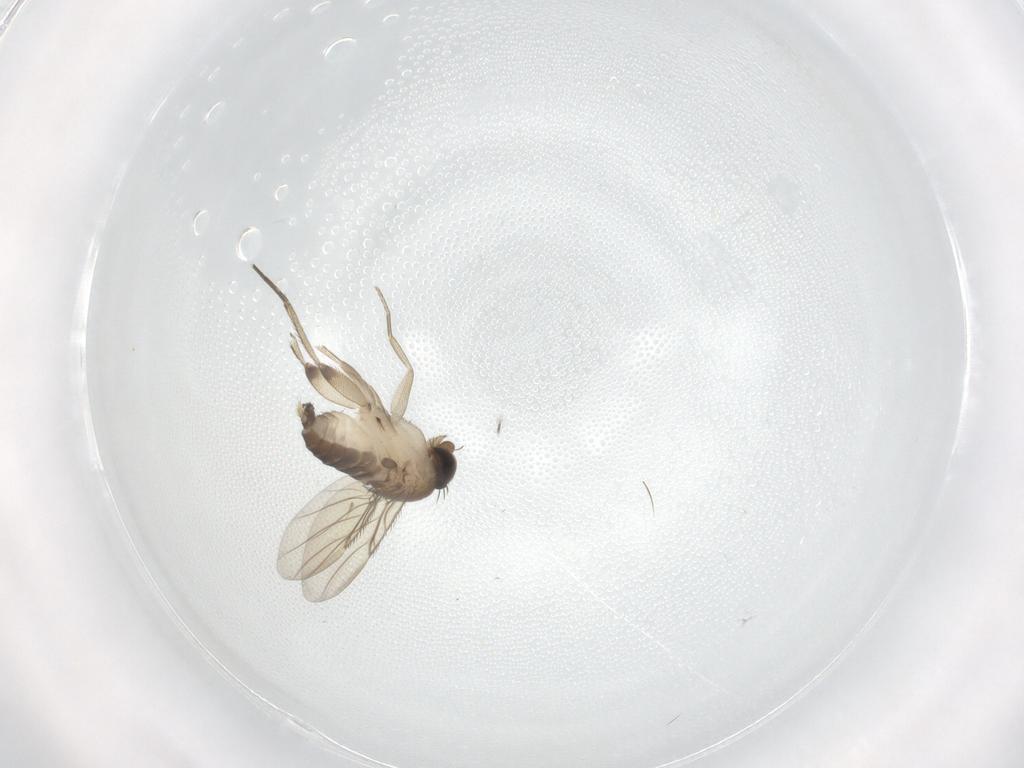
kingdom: Animalia
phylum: Arthropoda
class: Insecta
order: Diptera
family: Phoridae
